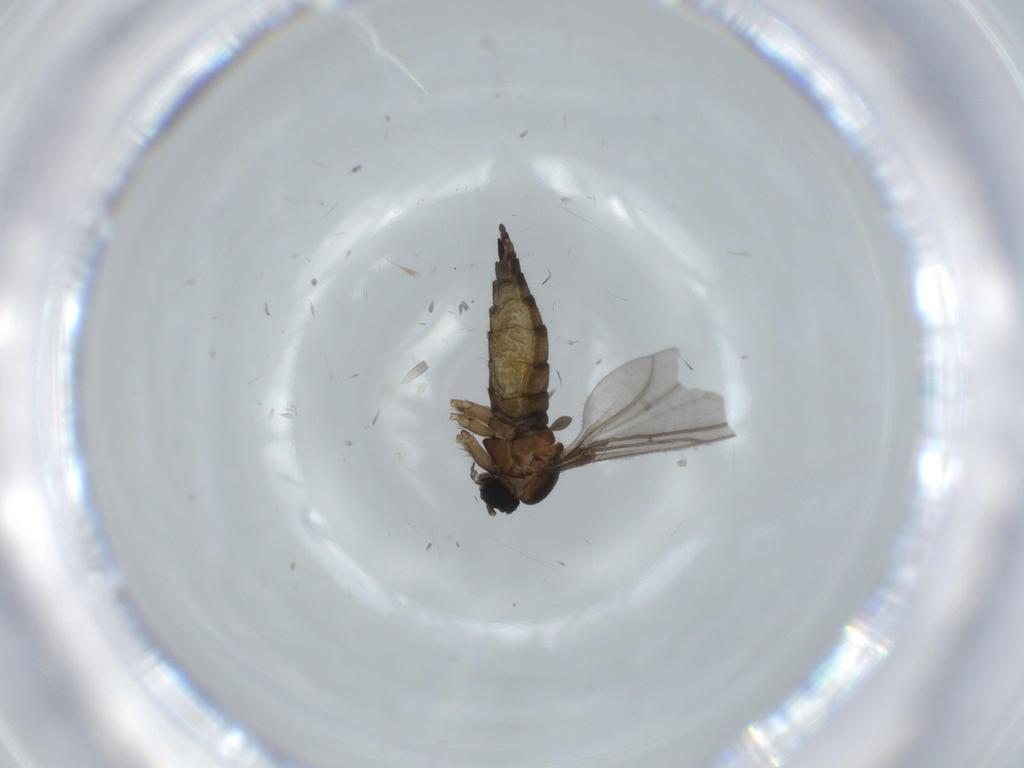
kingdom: Animalia
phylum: Arthropoda
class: Insecta
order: Diptera
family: Sciaridae
